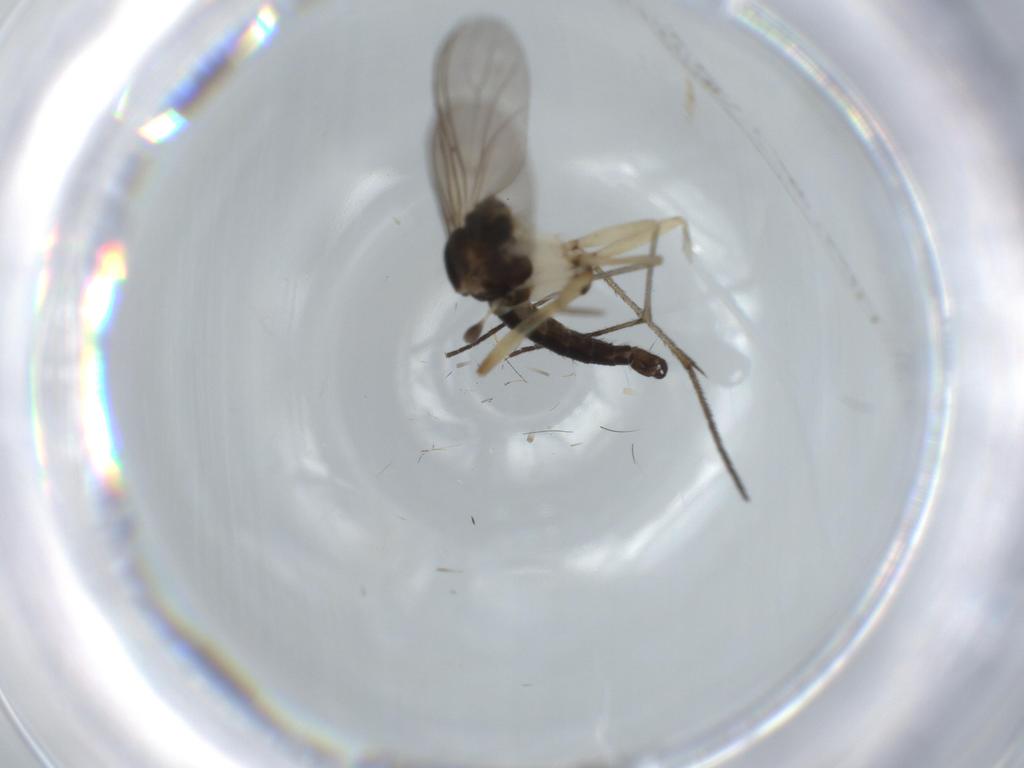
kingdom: Animalia
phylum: Arthropoda
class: Insecta
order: Diptera
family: Sciaridae
